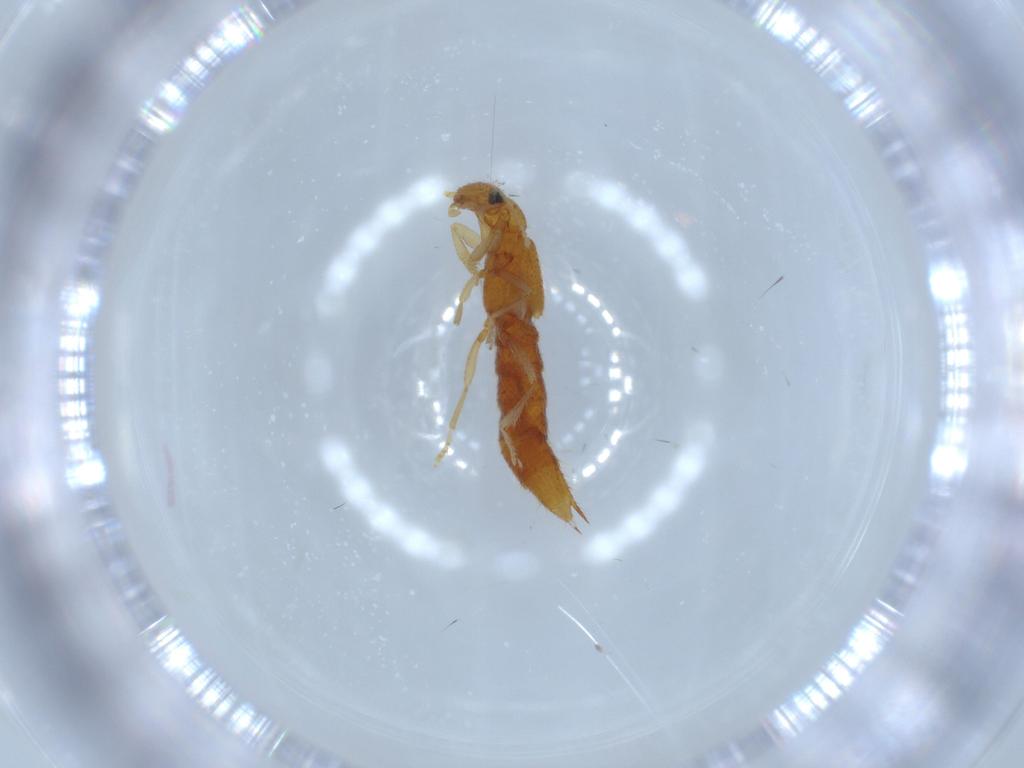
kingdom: Animalia
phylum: Arthropoda
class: Insecta
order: Coleoptera
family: Staphylinidae
